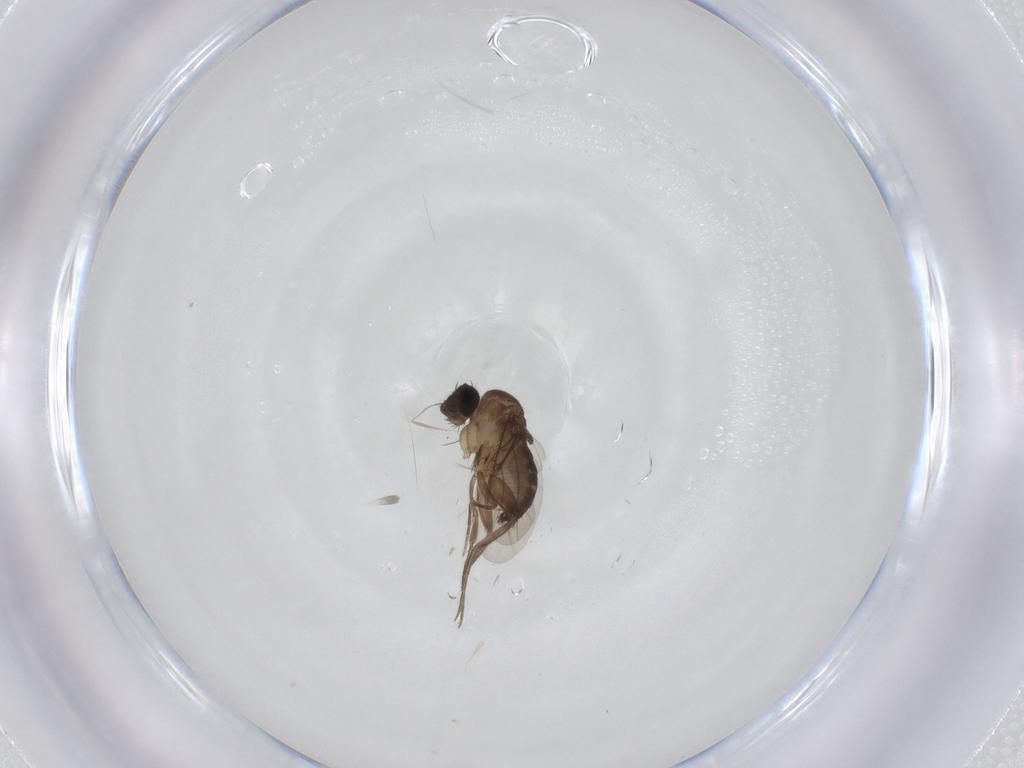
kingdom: Animalia
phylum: Arthropoda
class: Insecta
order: Diptera
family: Phoridae
